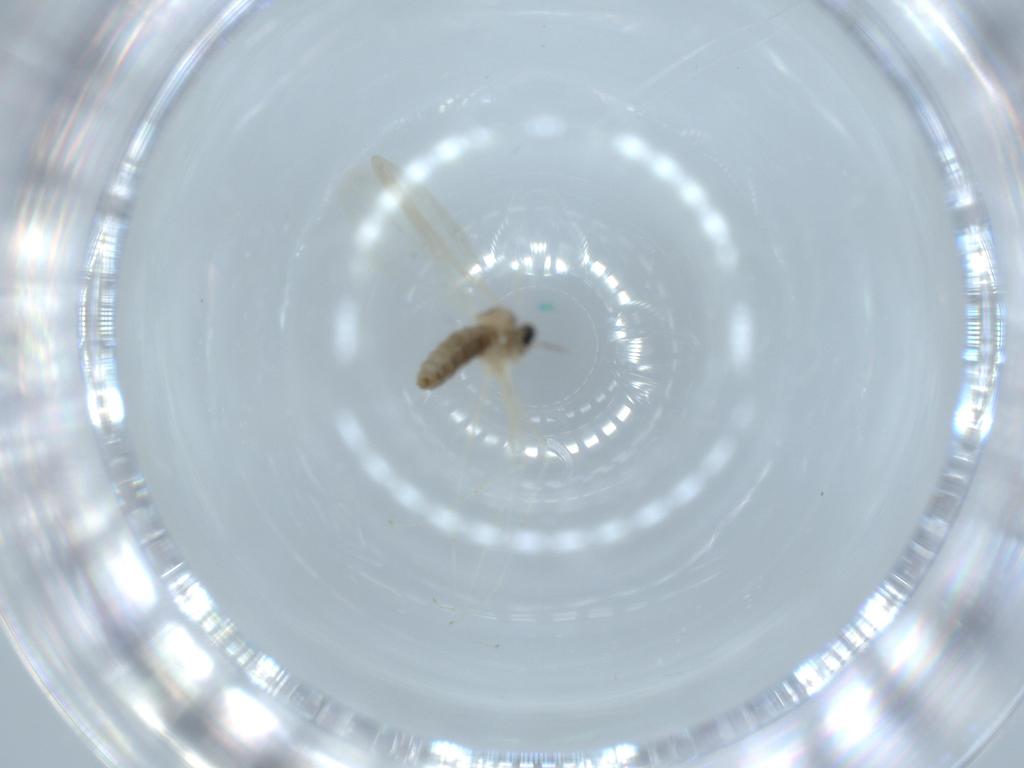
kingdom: Animalia
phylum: Arthropoda
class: Insecta
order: Diptera
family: Cecidomyiidae
